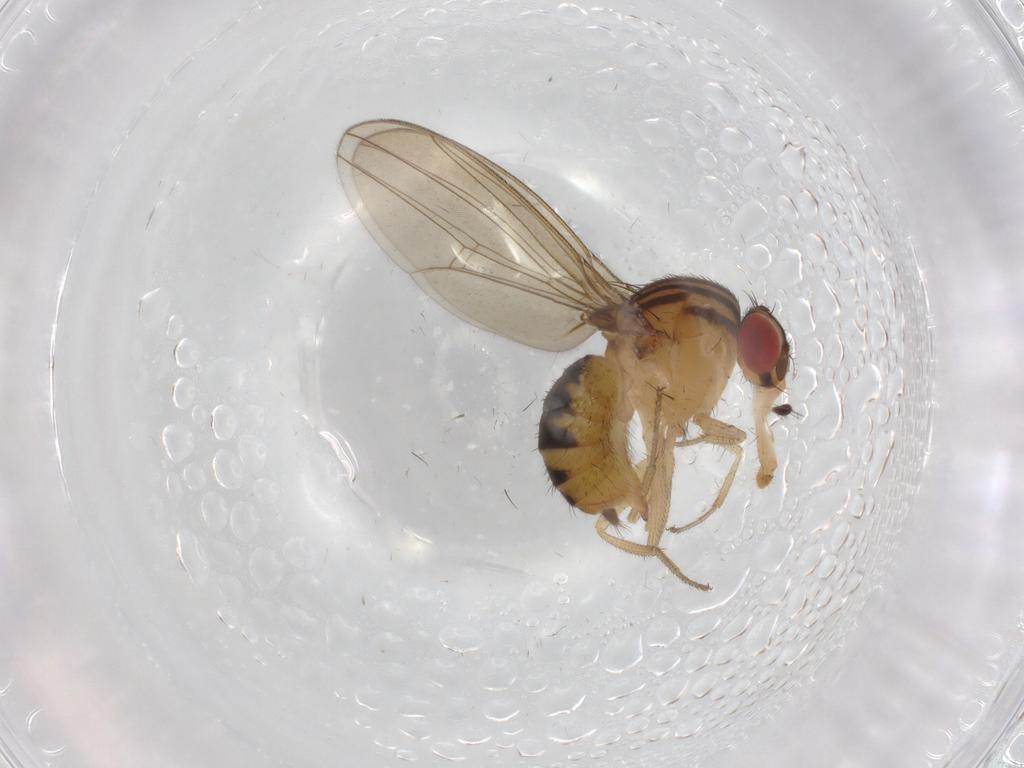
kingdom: Animalia
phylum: Arthropoda
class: Insecta
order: Diptera
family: Drosophilidae
